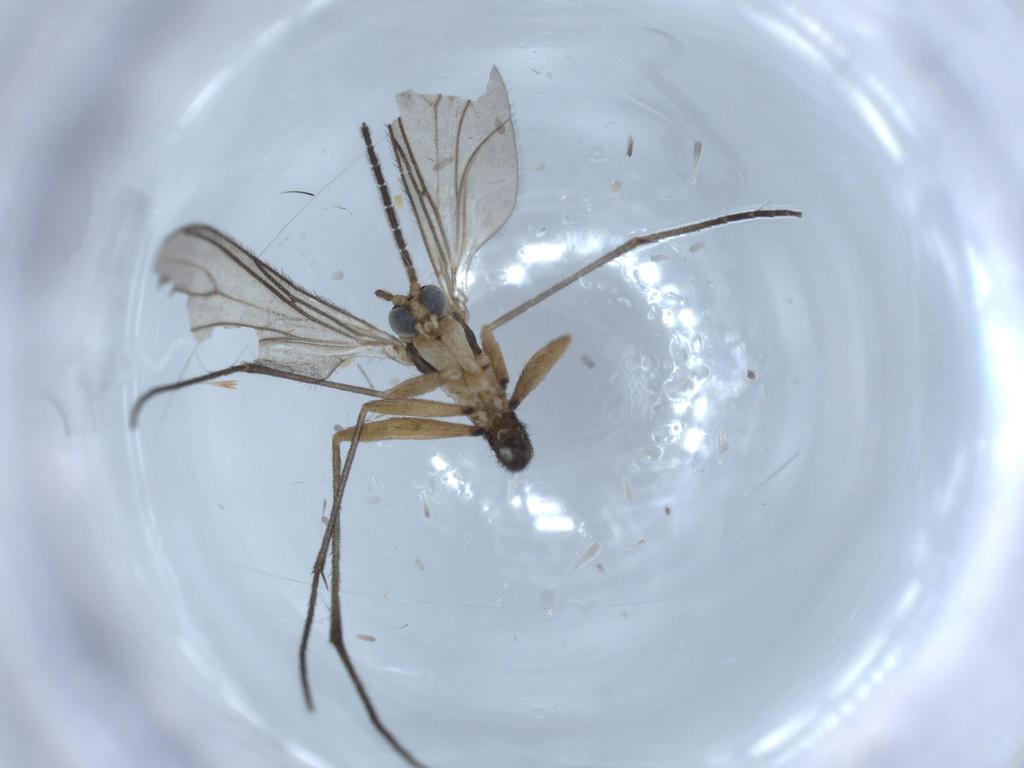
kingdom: Animalia
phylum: Arthropoda
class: Insecta
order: Diptera
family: Sciaridae
